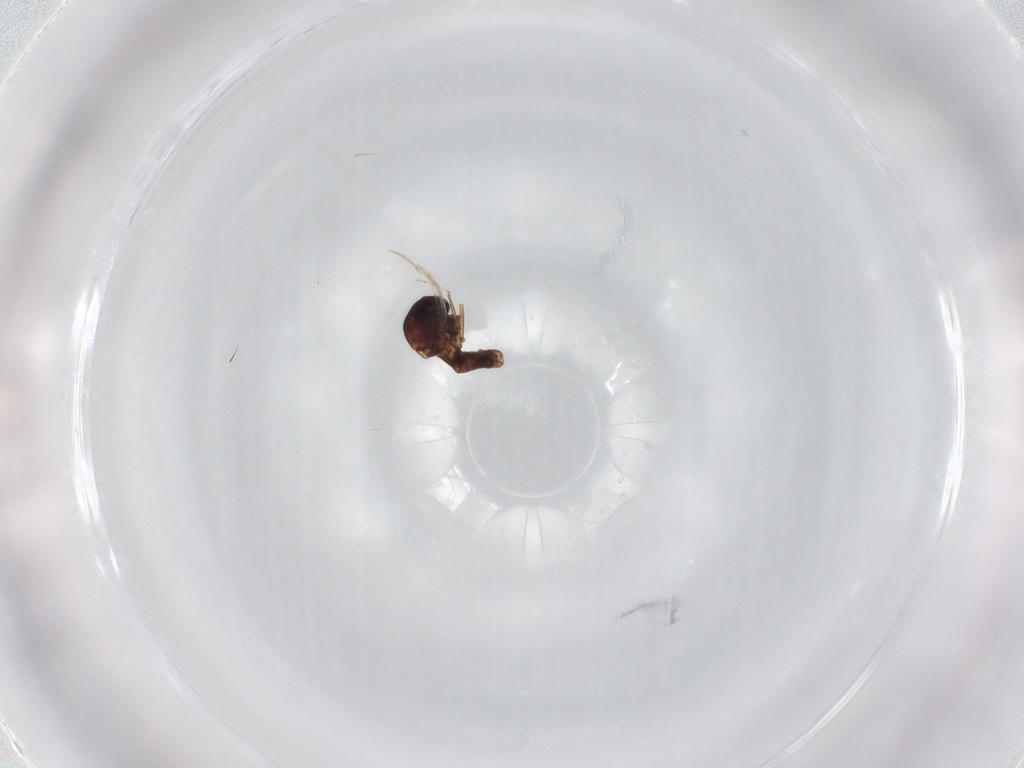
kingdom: Animalia
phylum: Arthropoda
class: Insecta
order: Diptera
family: Ceratopogonidae
